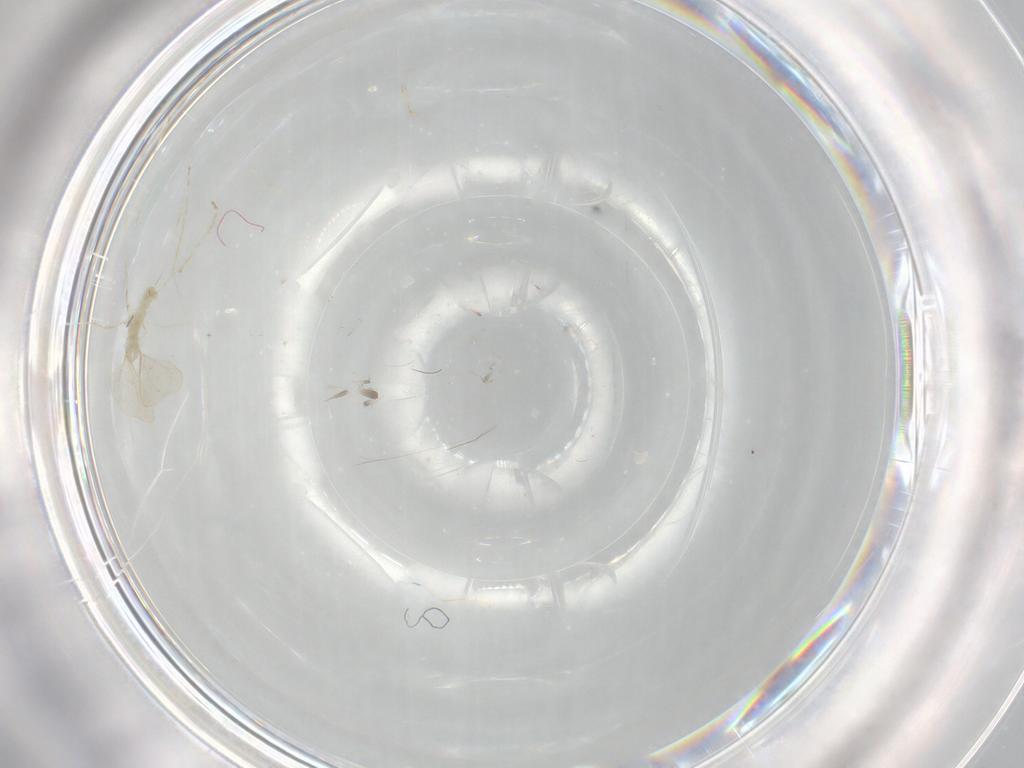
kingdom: Animalia
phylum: Arthropoda
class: Insecta
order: Diptera
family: Cecidomyiidae
